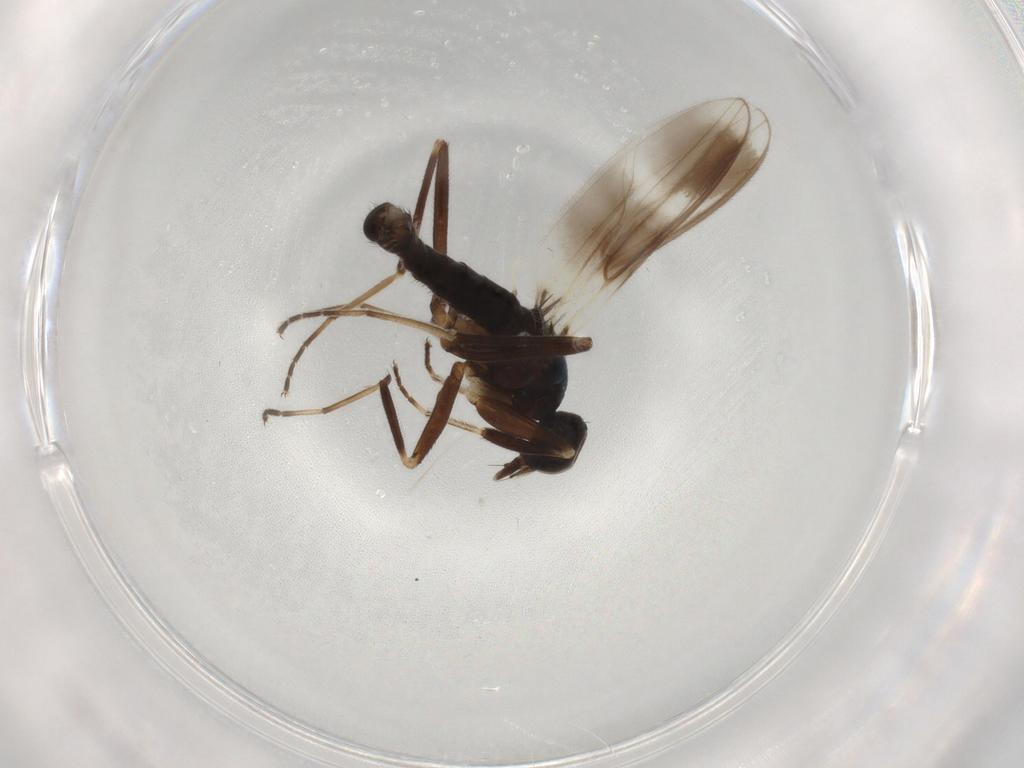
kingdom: Animalia
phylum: Arthropoda
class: Insecta
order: Diptera
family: Hybotidae
